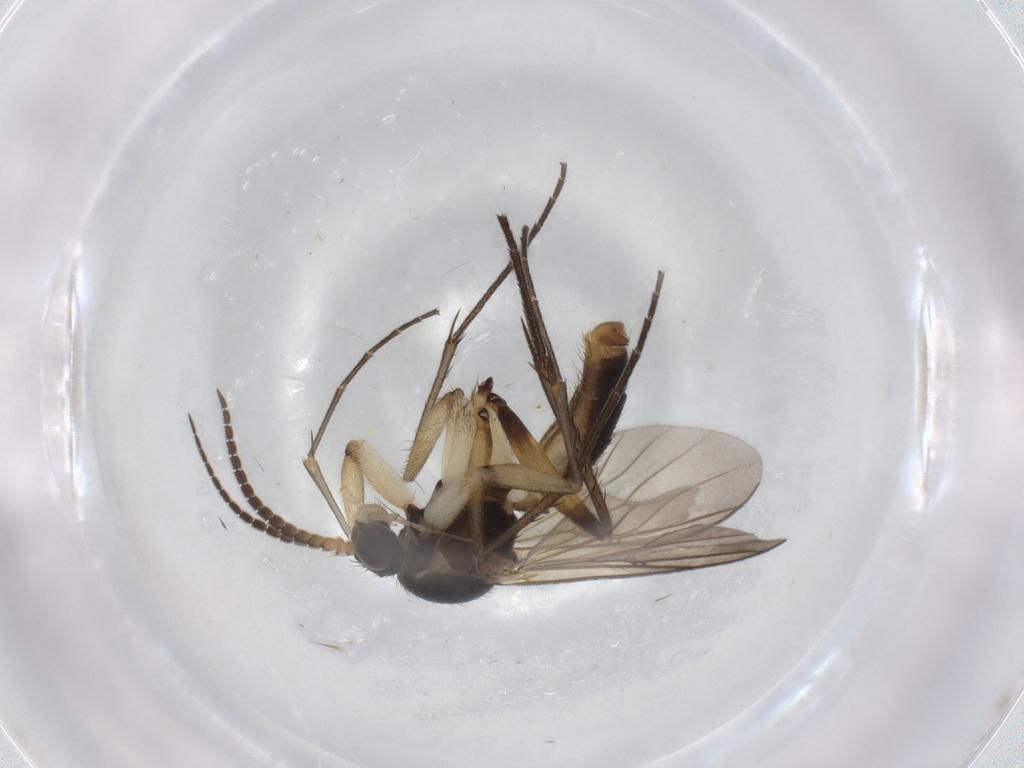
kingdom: Animalia
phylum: Arthropoda
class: Insecta
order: Diptera
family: Mycetophilidae
